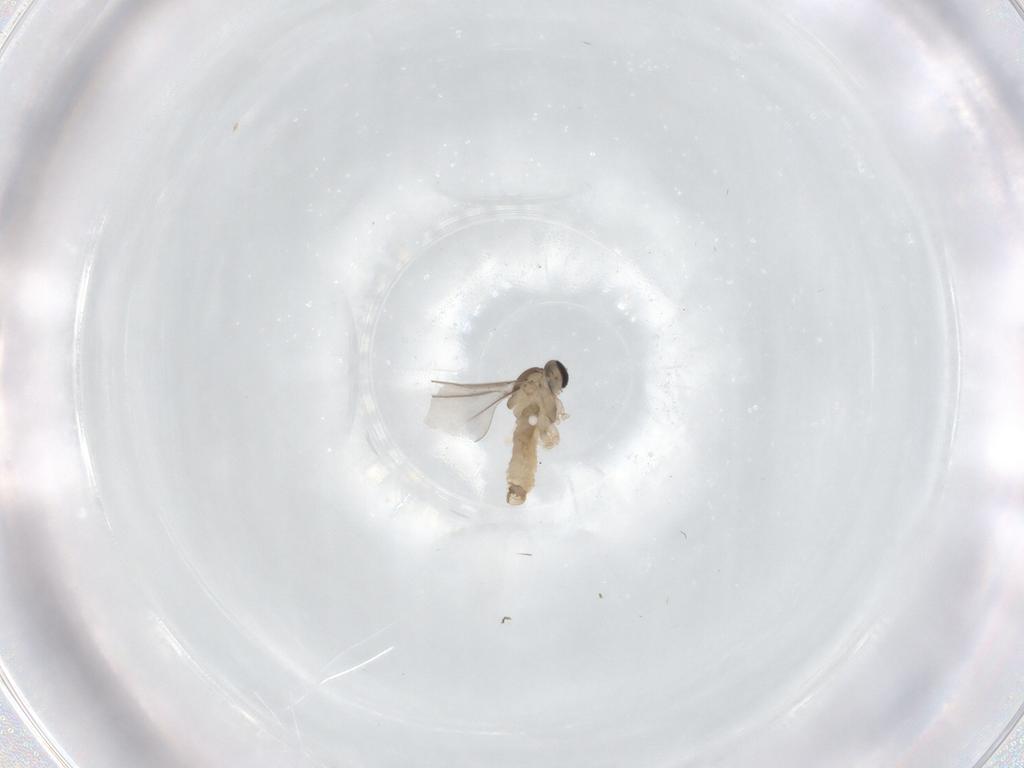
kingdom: Animalia
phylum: Arthropoda
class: Insecta
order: Diptera
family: Cecidomyiidae
